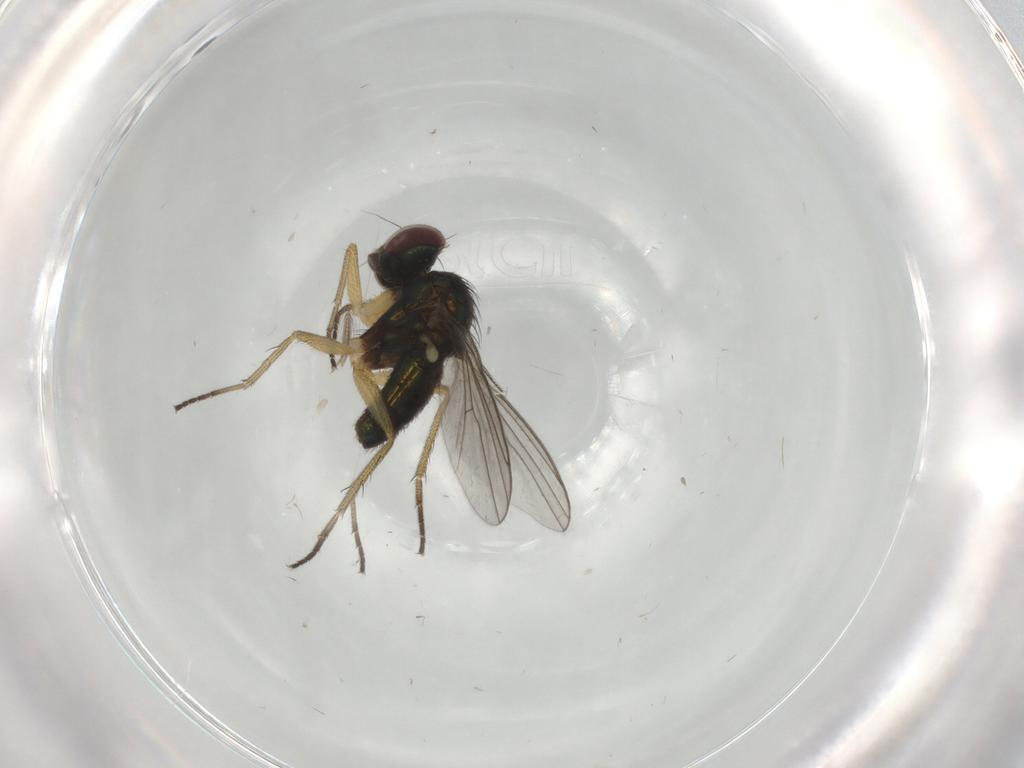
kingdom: Animalia
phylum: Arthropoda
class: Insecta
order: Diptera
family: Ceratopogonidae
